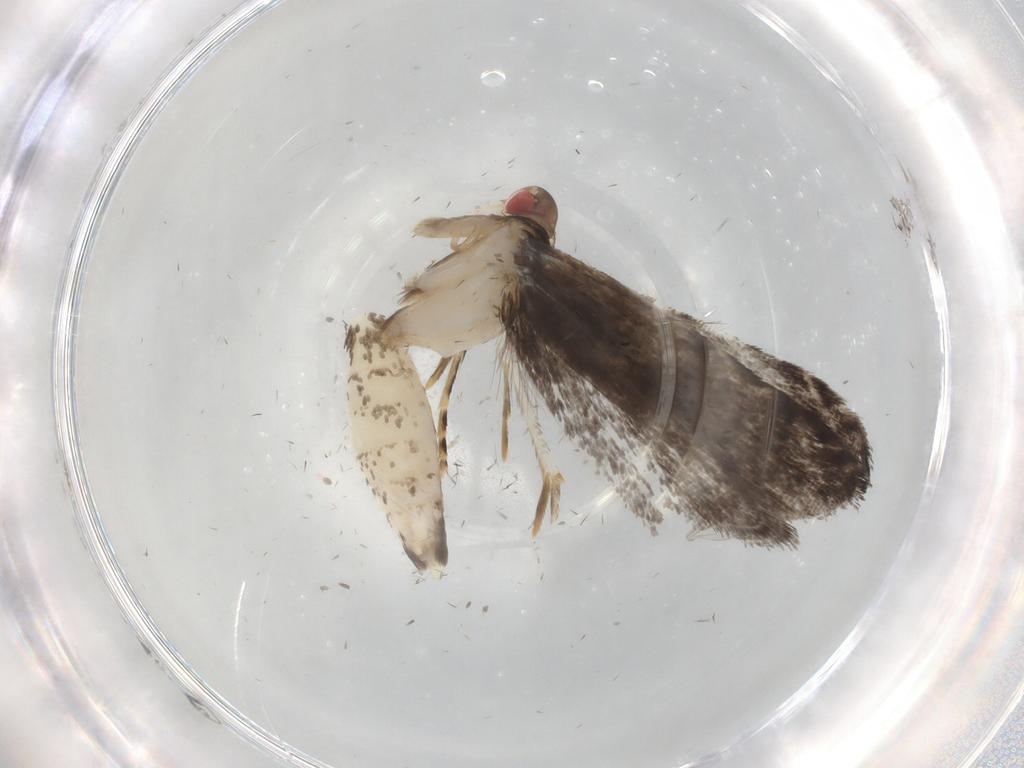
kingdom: Animalia
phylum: Arthropoda
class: Insecta
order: Lepidoptera
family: Gelechiidae
